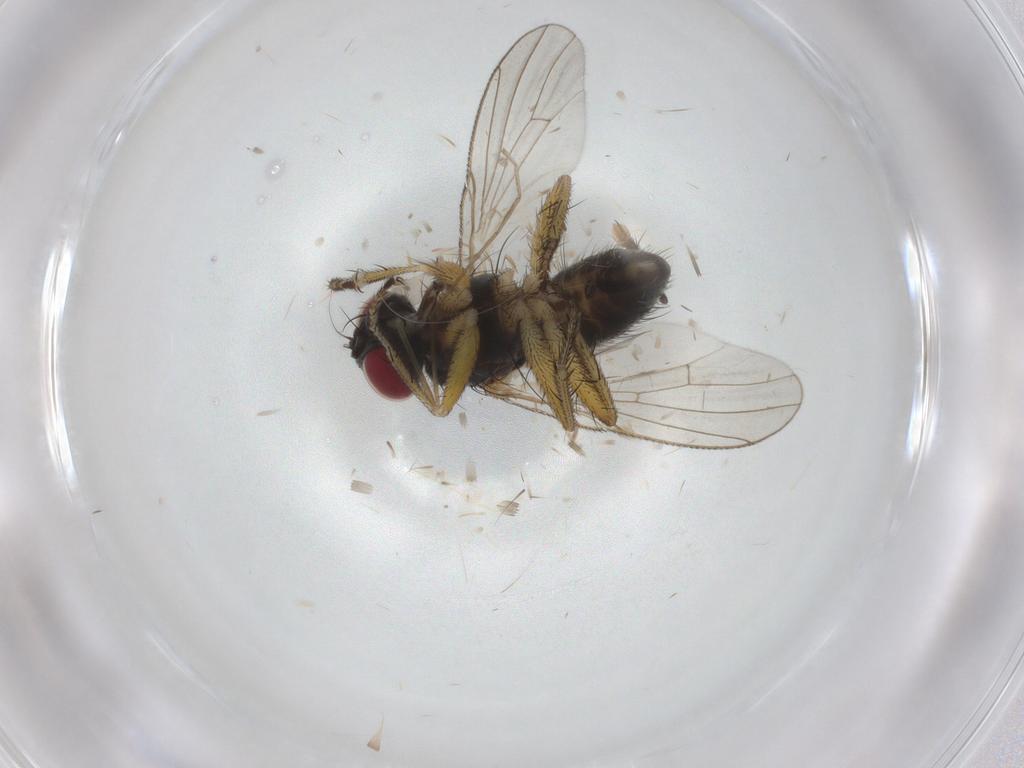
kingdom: Animalia
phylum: Arthropoda
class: Insecta
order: Diptera
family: Muscidae
